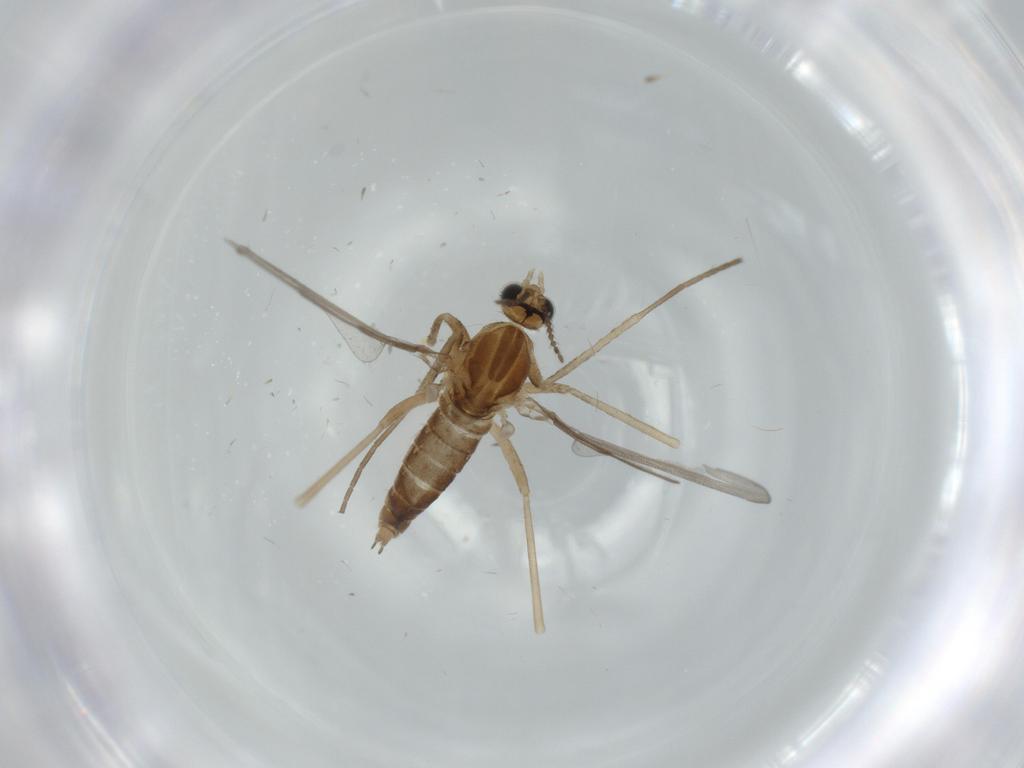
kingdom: Animalia
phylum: Arthropoda
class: Insecta
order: Diptera
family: Cecidomyiidae
